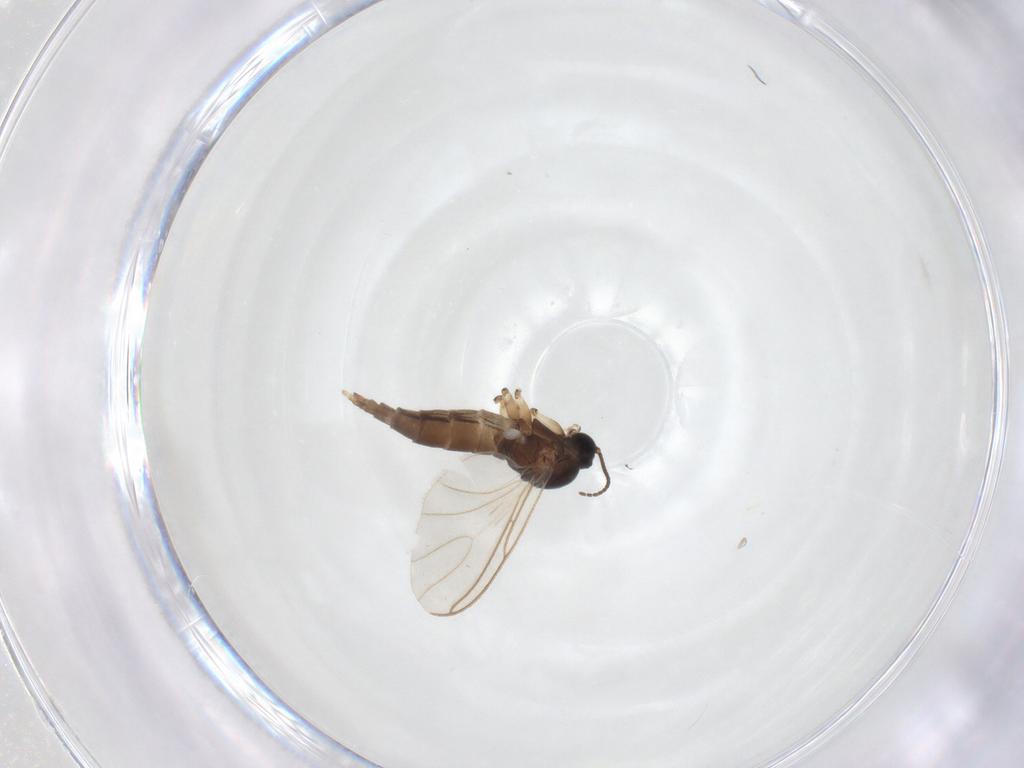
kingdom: Animalia
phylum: Arthropoda
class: Insecta
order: Diptera
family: Sciaridae
